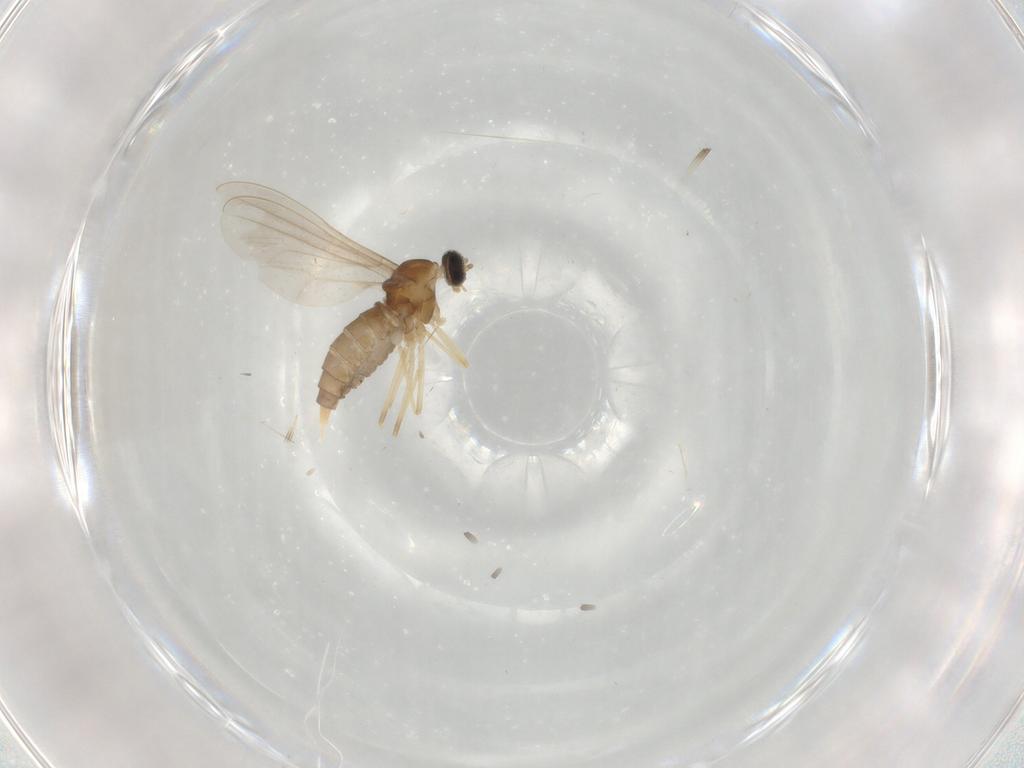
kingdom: Animalia
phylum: Arthropoda
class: Insecta
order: Diptera
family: Cecidomyiidae
